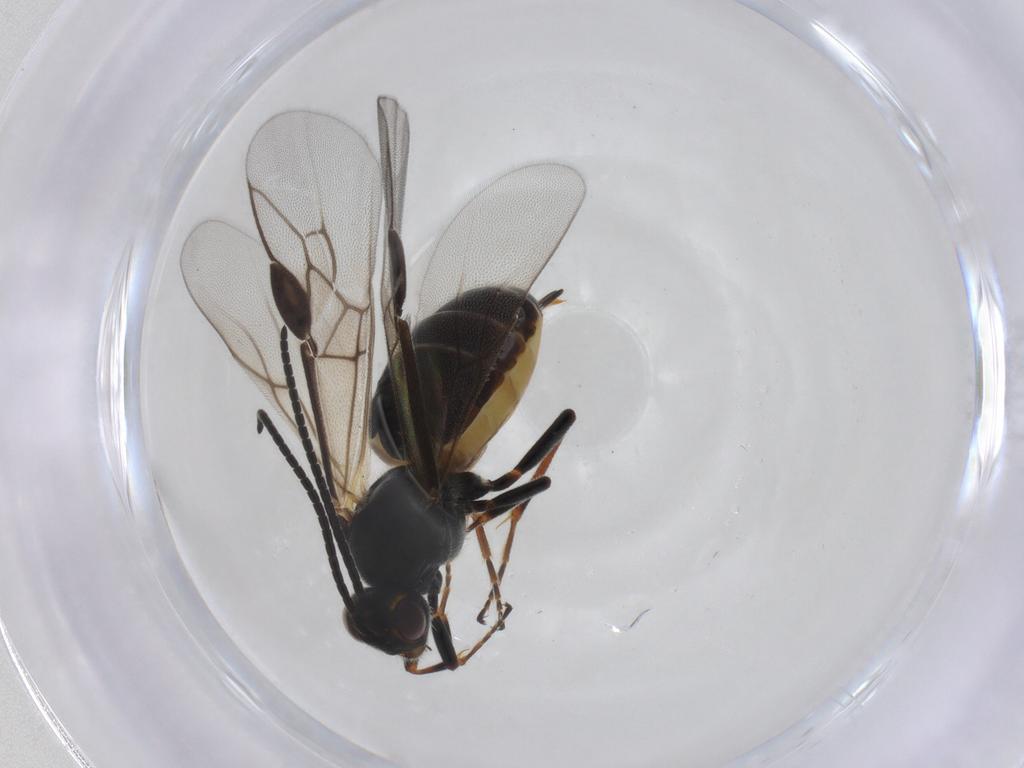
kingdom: Animalia
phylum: Arthropoda
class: Insecta
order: Hymenoptera
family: Braconidae
